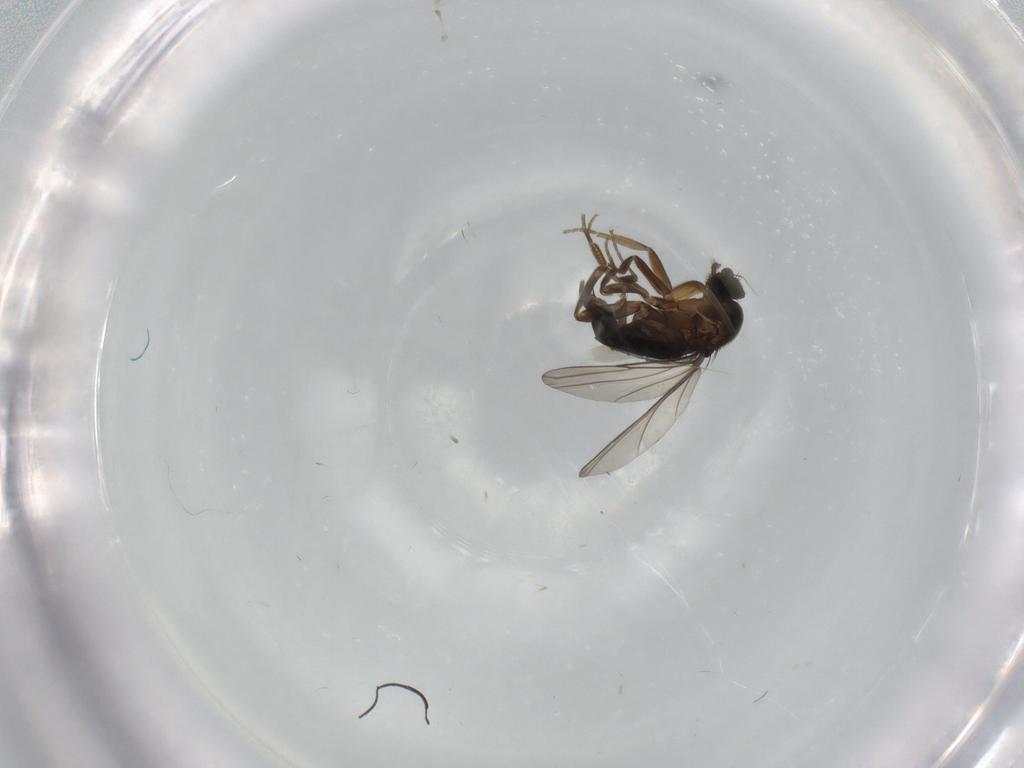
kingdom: Animalia
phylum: Arthropoda
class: Insecta
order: Diptera
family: Phoridae
